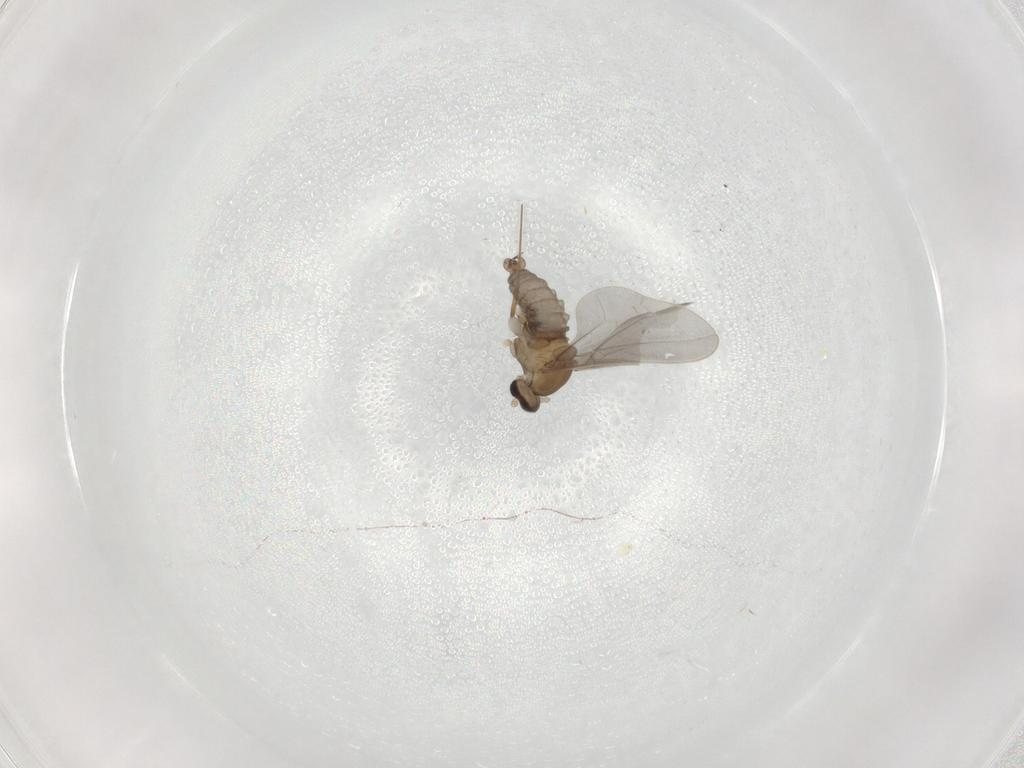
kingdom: Animalia
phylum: Arthropoda
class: Insecta
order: Diptera
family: Cecidomyiidae
